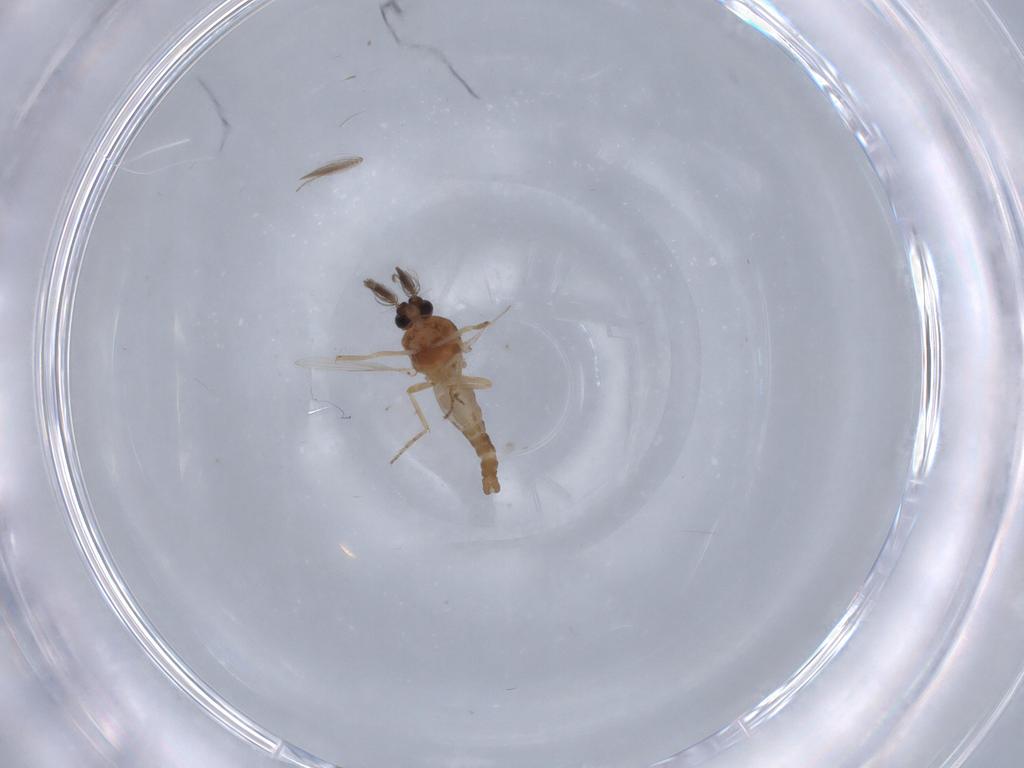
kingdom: Animalia
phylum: Arthropoda
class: Insecta
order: Diptera
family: Ceratopogonidae
